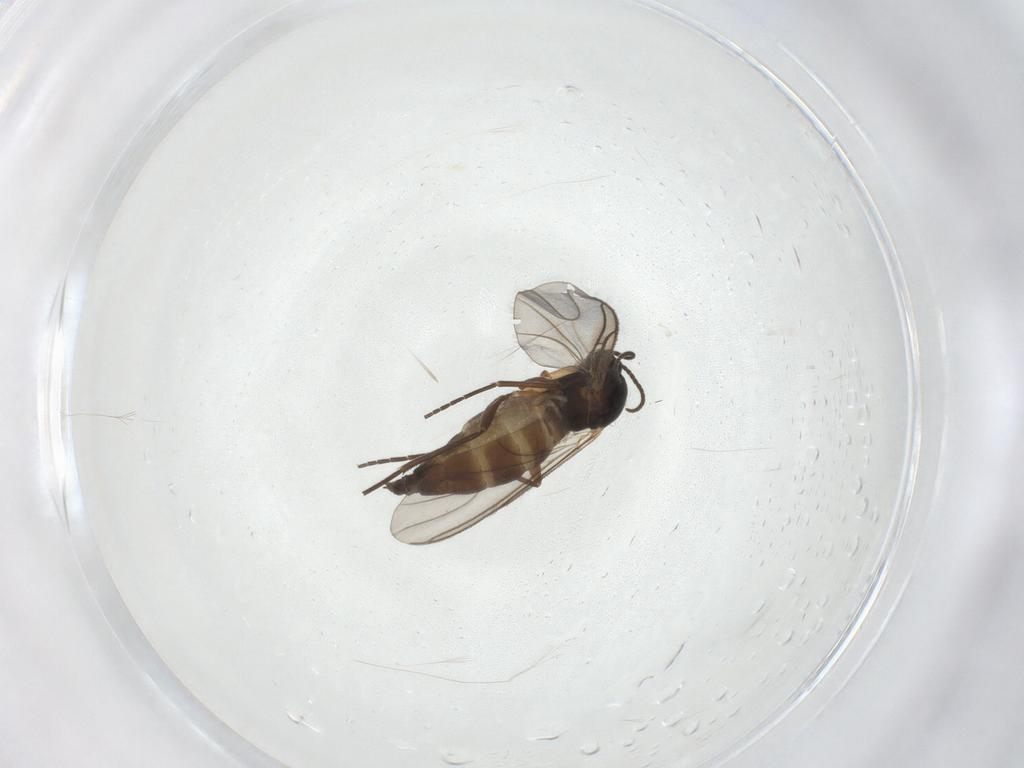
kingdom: Animalia
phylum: Arthropoda
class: Insecta
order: Diptera
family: Sciaridae
